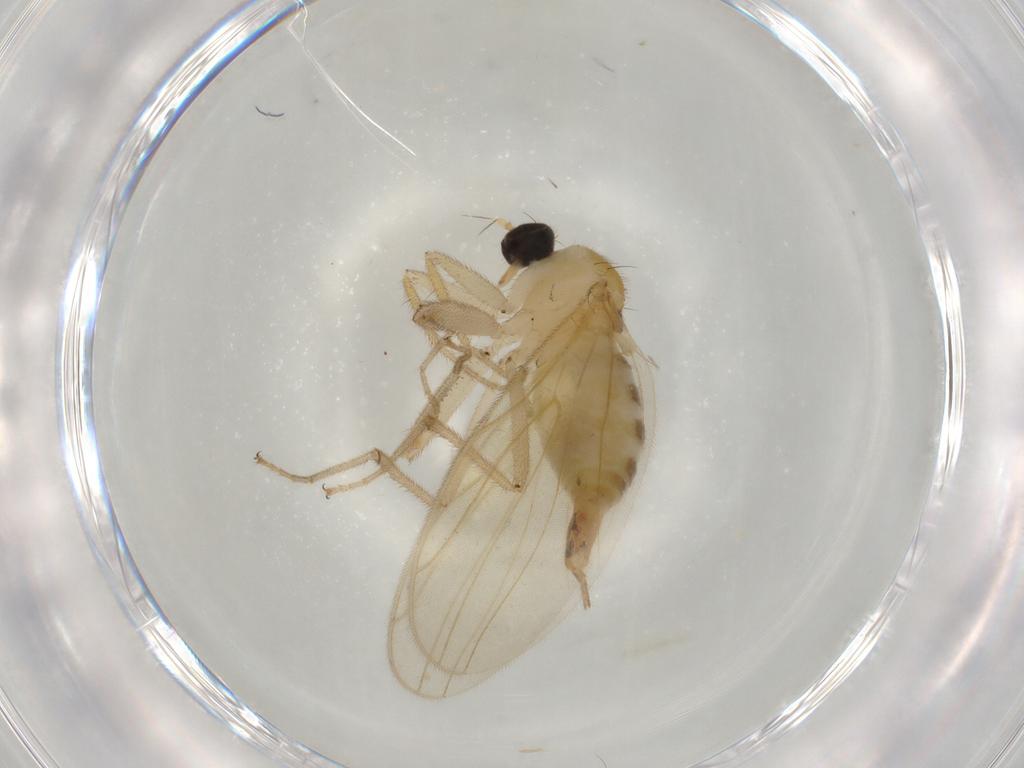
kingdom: Animalia
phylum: Arthropoda
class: Insecta
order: Diptera
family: Hybotidae
